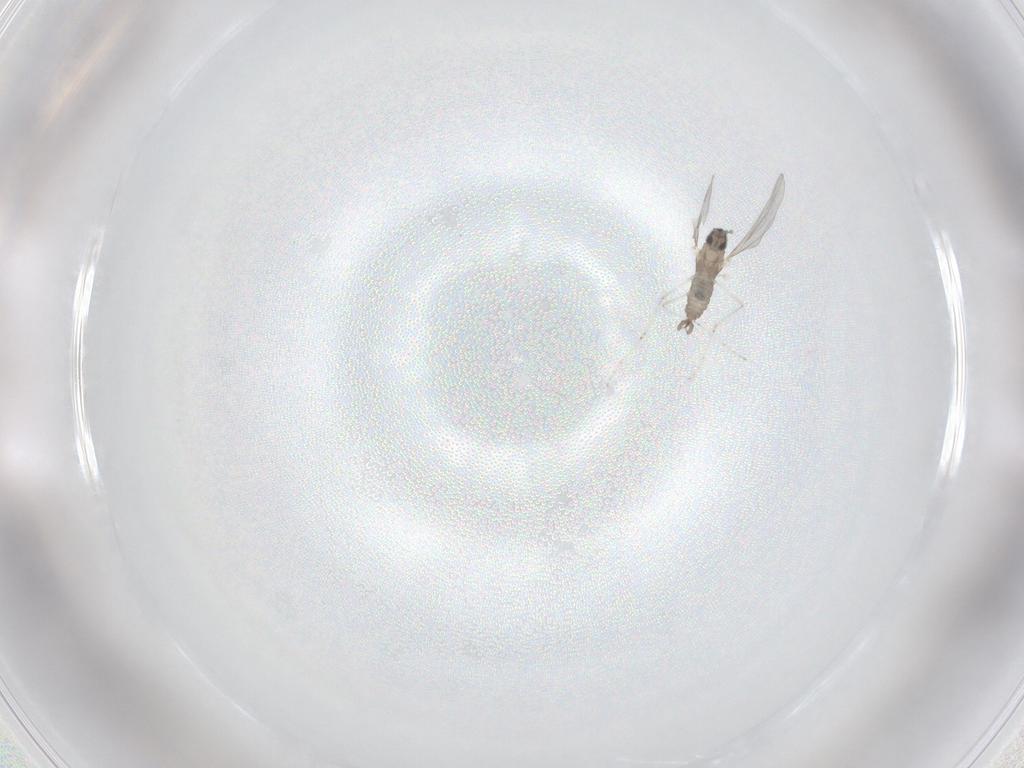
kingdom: Animalia
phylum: Arthropoda
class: Insecta
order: Diptera
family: Cecidomyiidae
